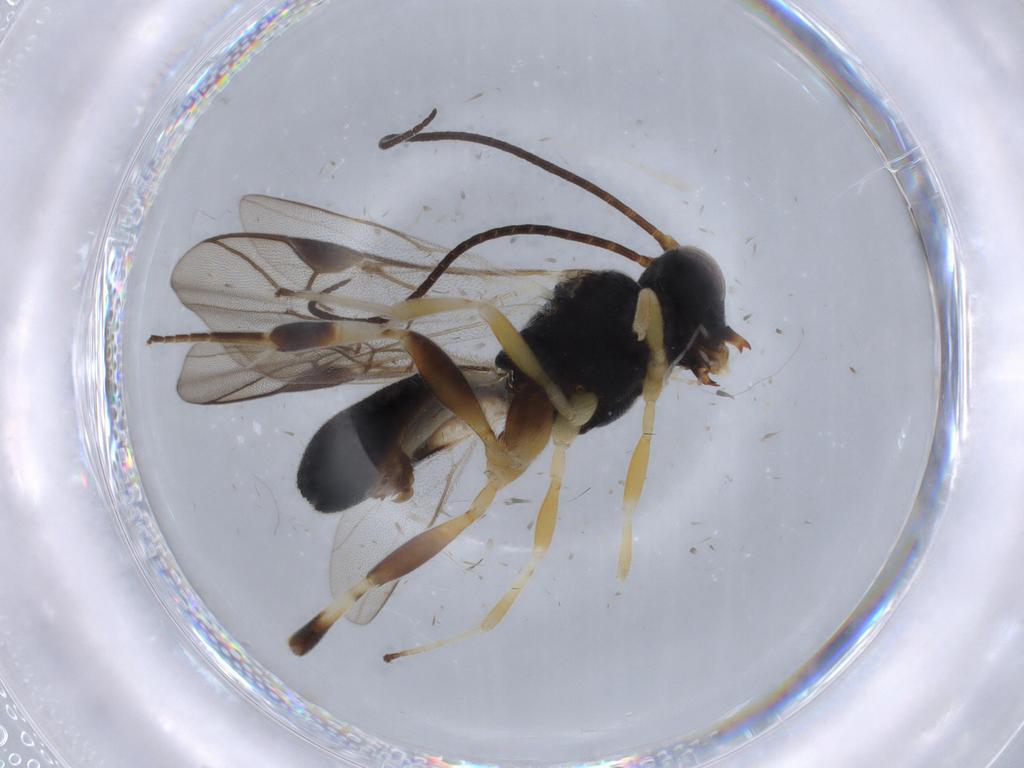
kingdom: Animalia
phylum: Arthropoda
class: Insecta
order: Hymenoptera
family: Braconidae
